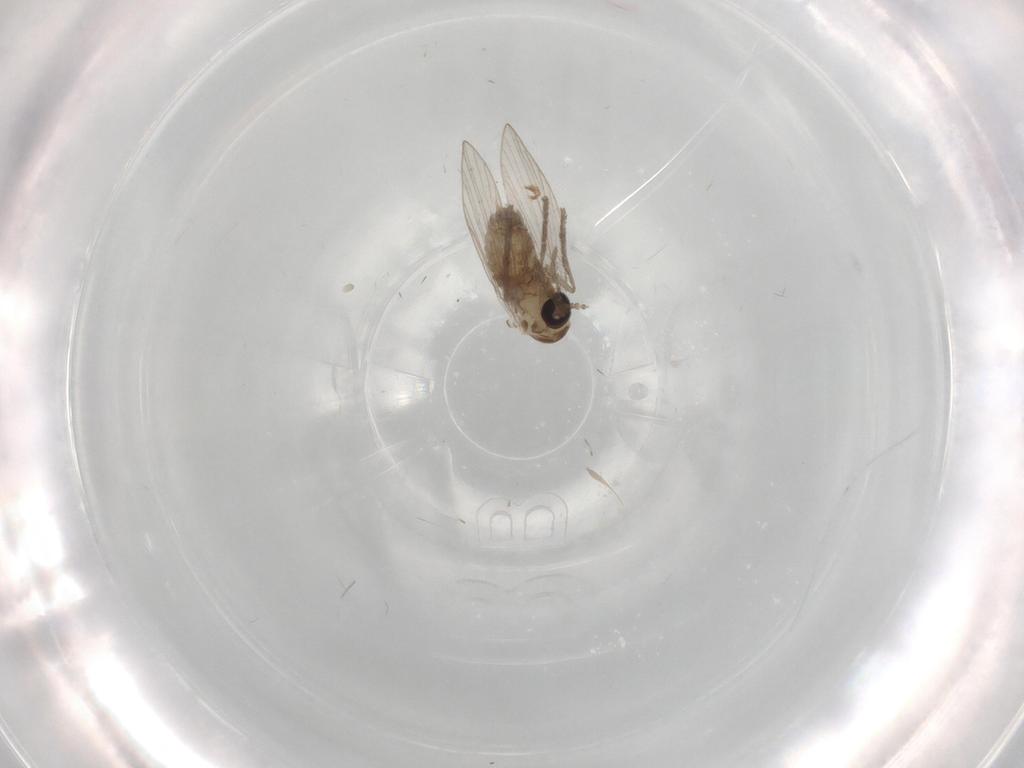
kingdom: Animalia
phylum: Arthropoda
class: Insecta
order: Diptera
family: Psychodidae
